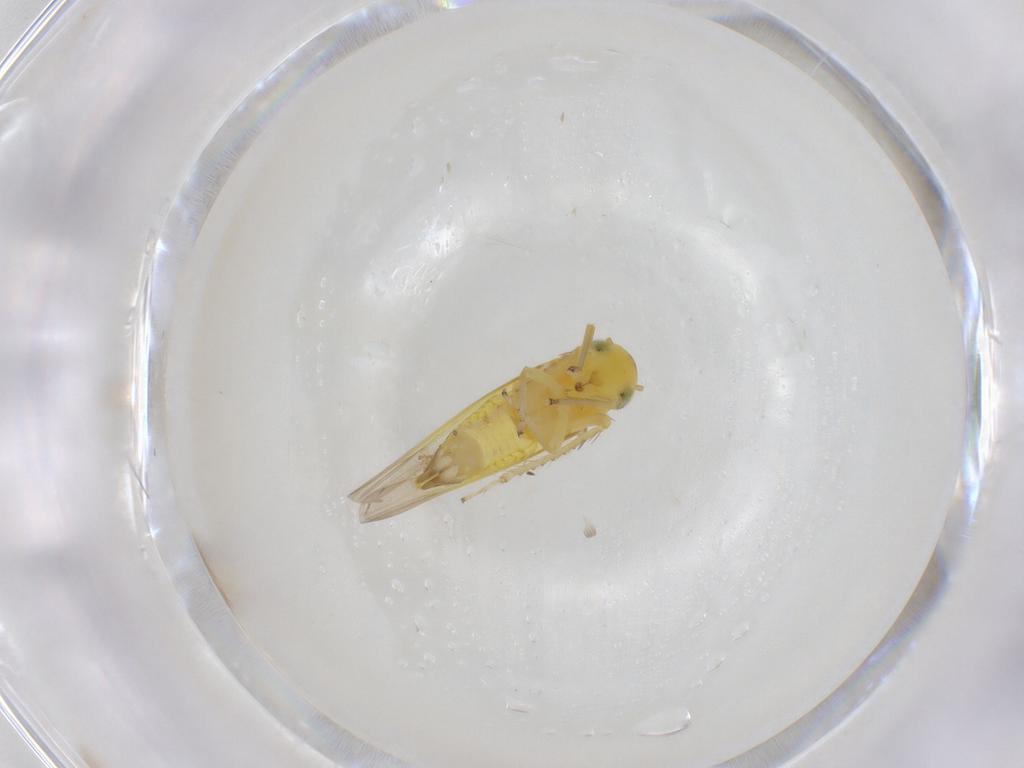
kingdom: Animalia
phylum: Arthropoda
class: Insecta
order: Hemiptera
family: Cicadellidae
